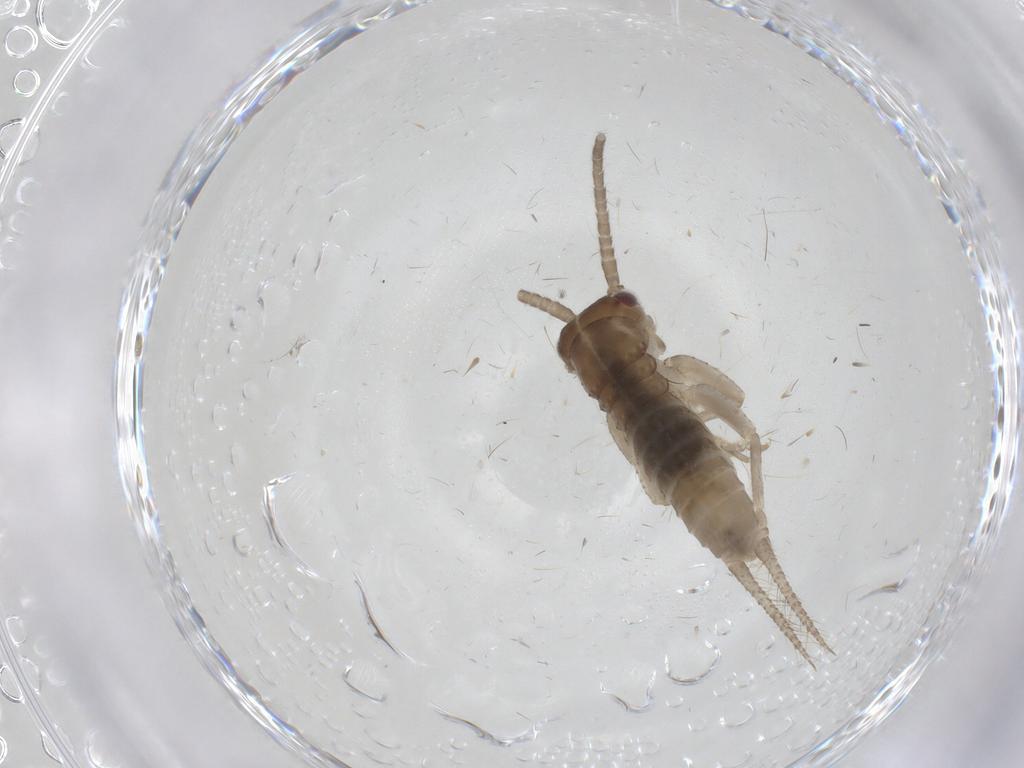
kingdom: Animalia
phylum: Arthropoda
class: Insecta
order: Orthoptera
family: Gryllidae
